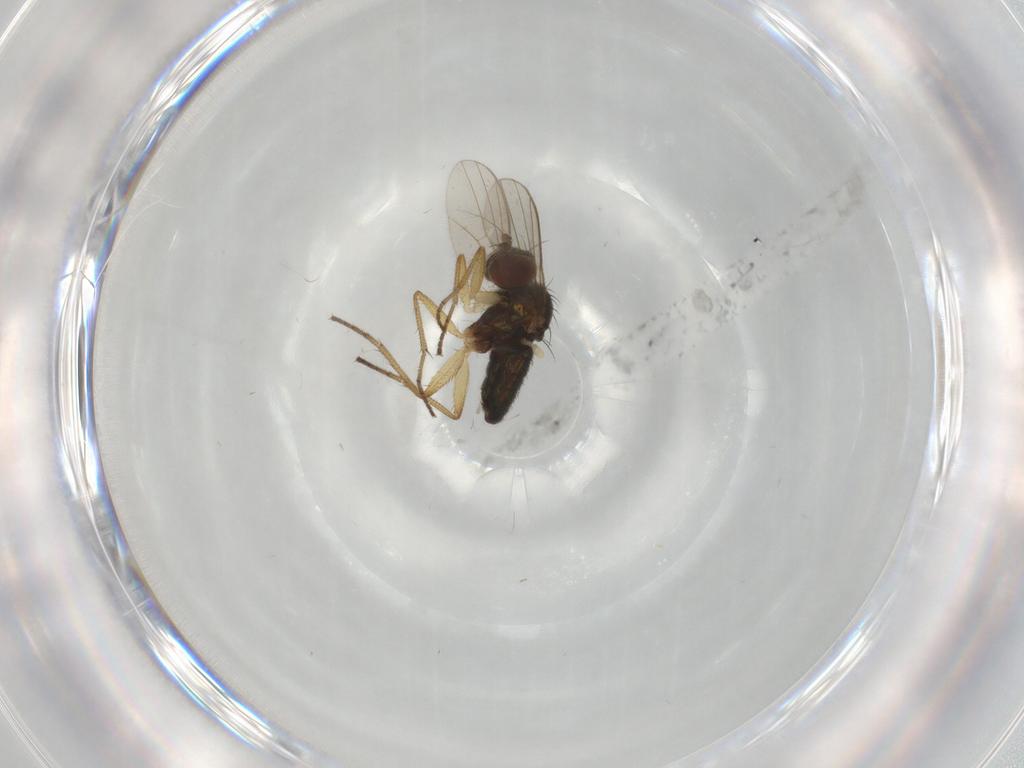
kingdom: Animalia
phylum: Arthropoda
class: Insecta
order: Diptera
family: Dolichopodidae
